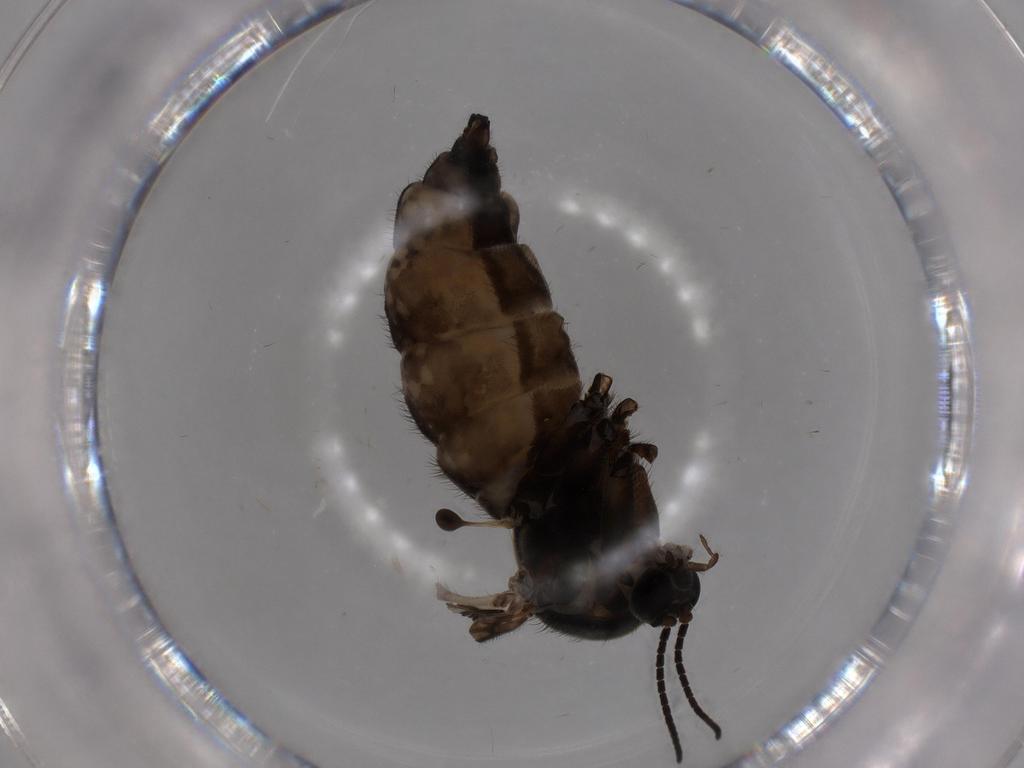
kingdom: Animalia
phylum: Arthropoda
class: Insecta
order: Diptera
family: Sciaridae
